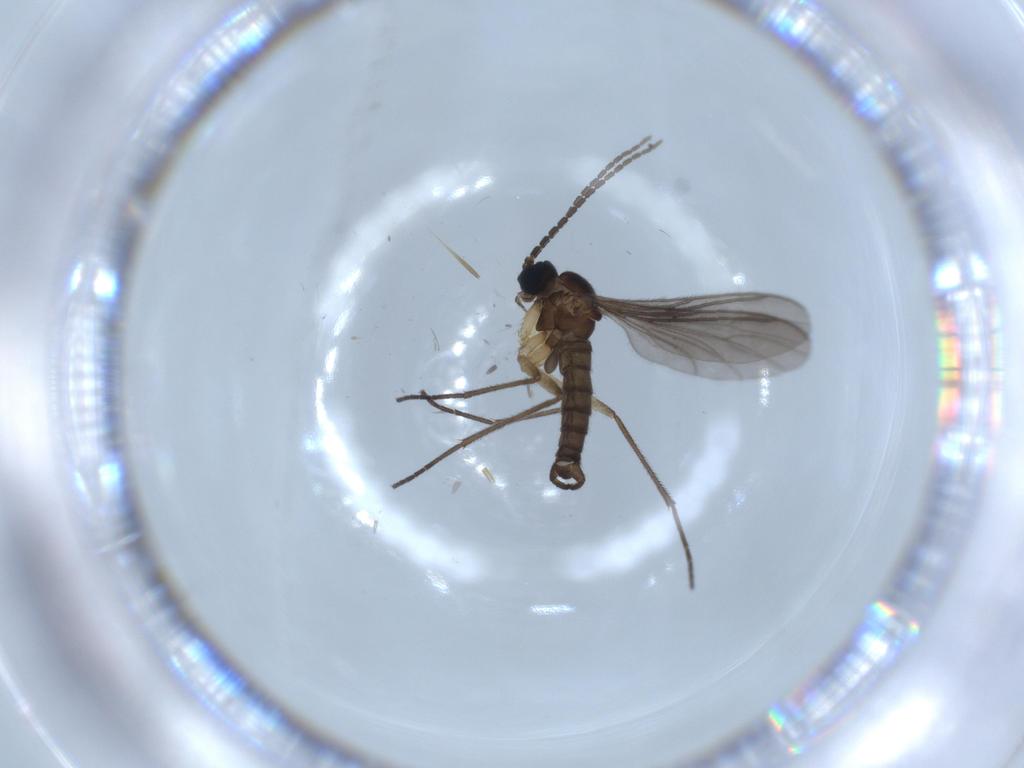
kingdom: Animalia
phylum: Arthropoda
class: Insecta
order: Diptera
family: Sciaridae
